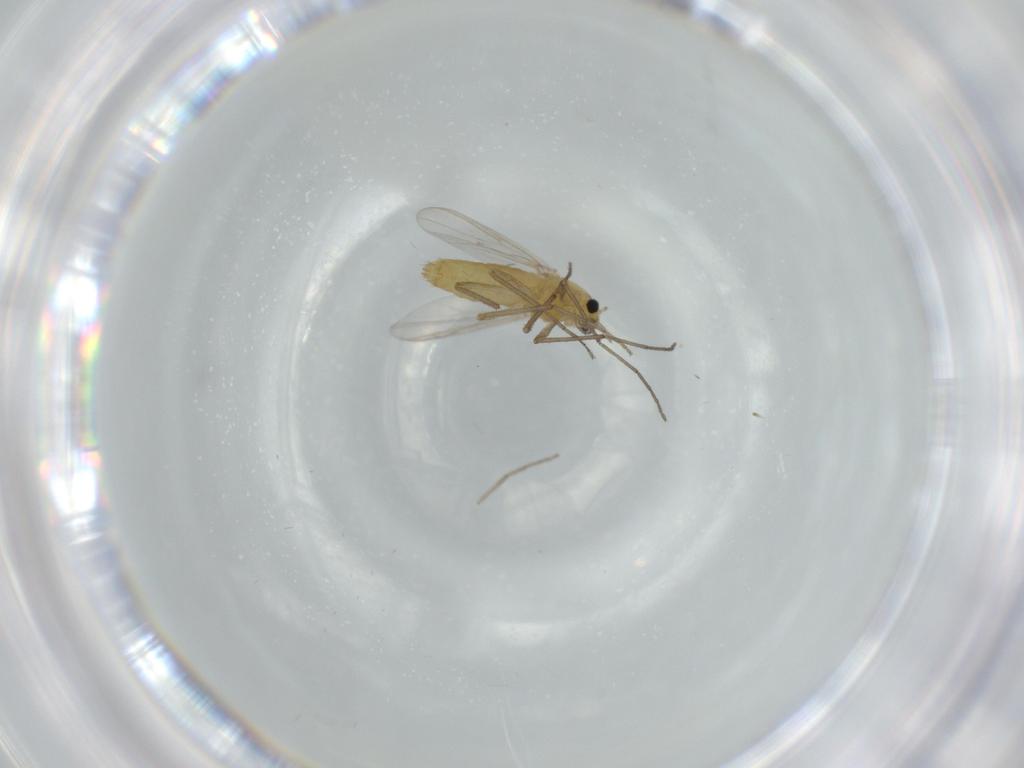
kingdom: Animalia
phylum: Arthropoda
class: Insecta
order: Diptera
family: Cecidomyiidae
